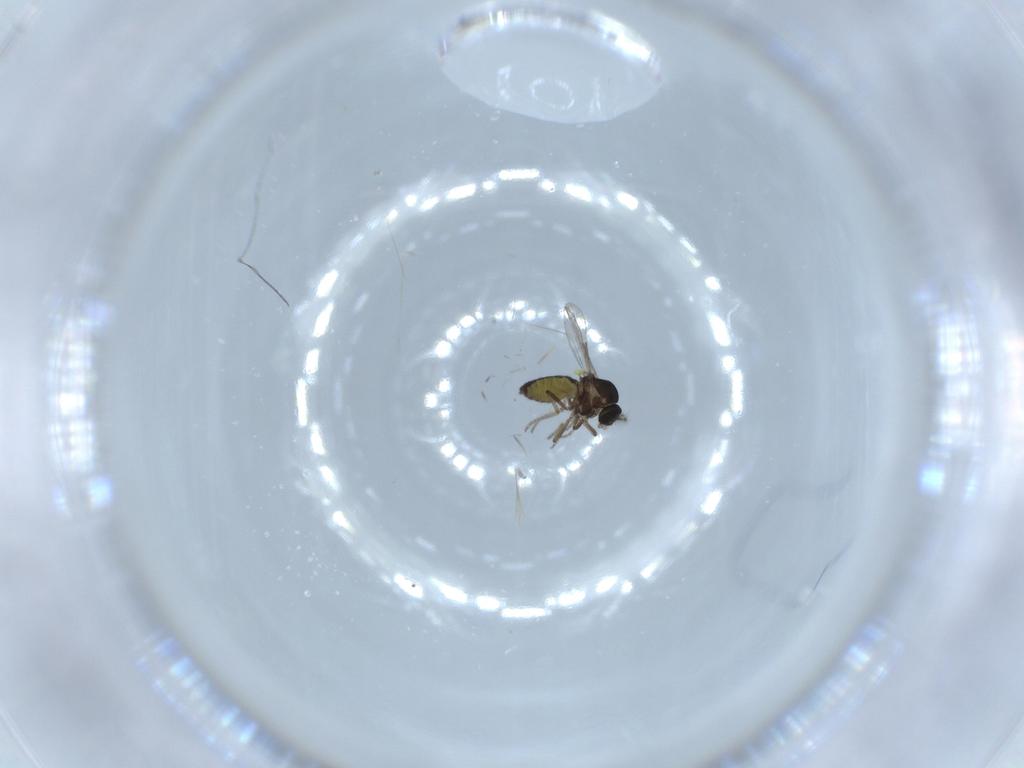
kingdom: Animalia
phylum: Arthropoda
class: Insecta
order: Diptera
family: Ceratopogonidae
